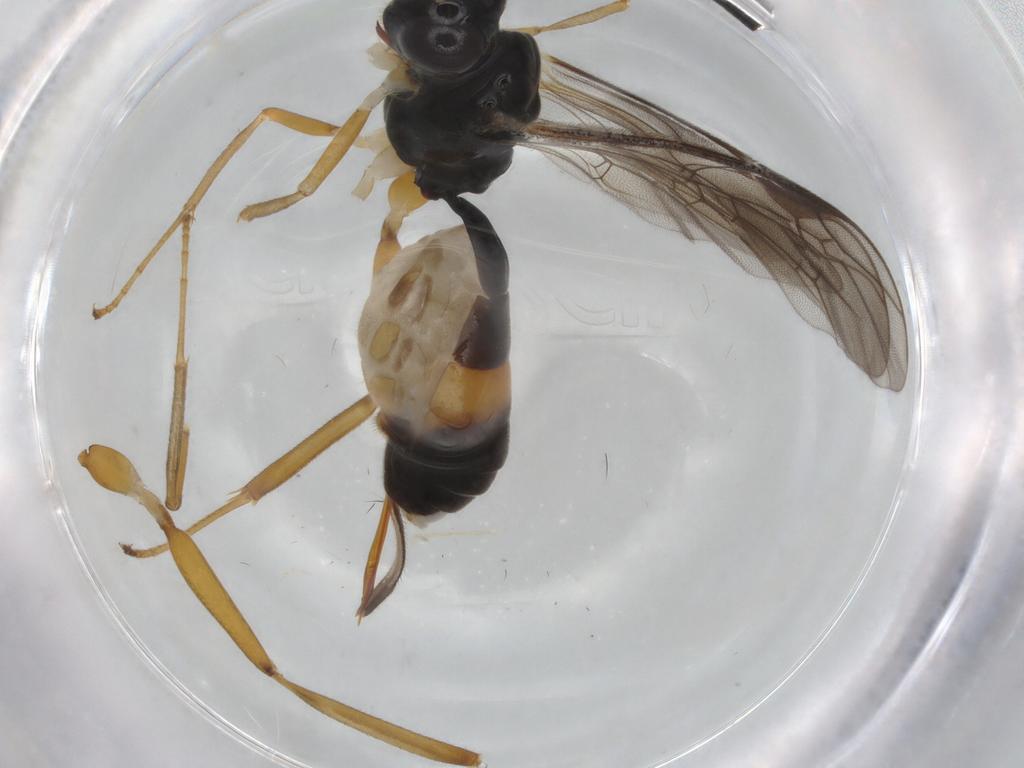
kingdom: Animalia
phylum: Arthropoda
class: Insecta
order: Hymenoptera
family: Ichneumonidae
